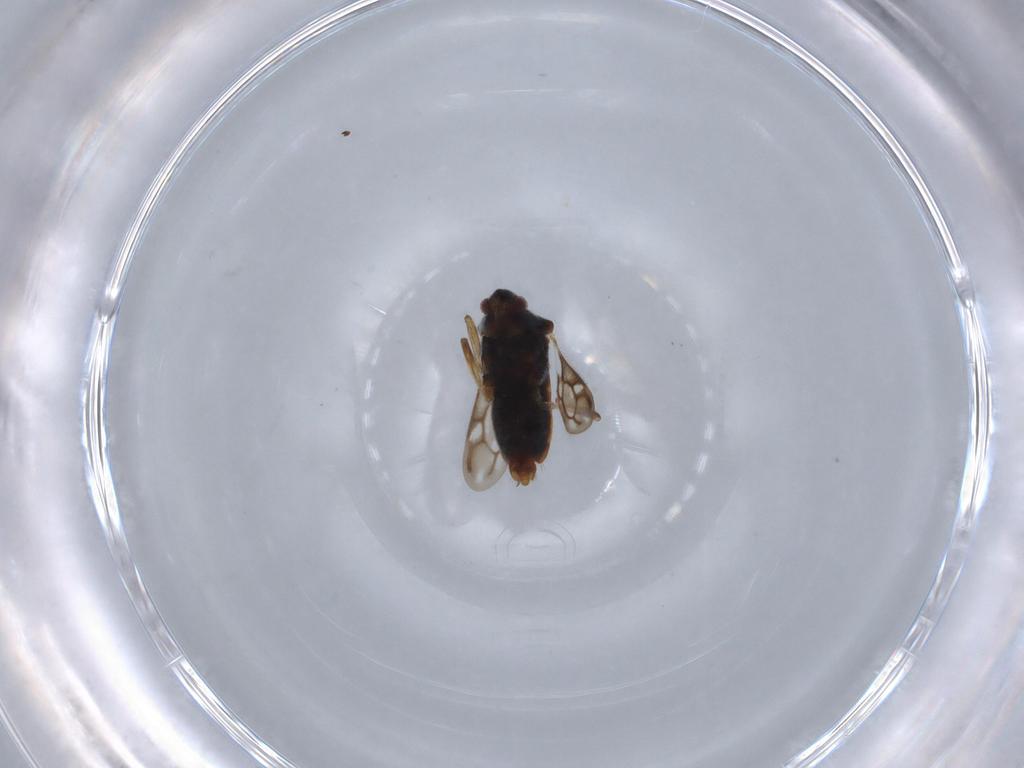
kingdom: Animalia
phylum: Arthropoda
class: Insecta
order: Hemiptera
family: Veliidae
